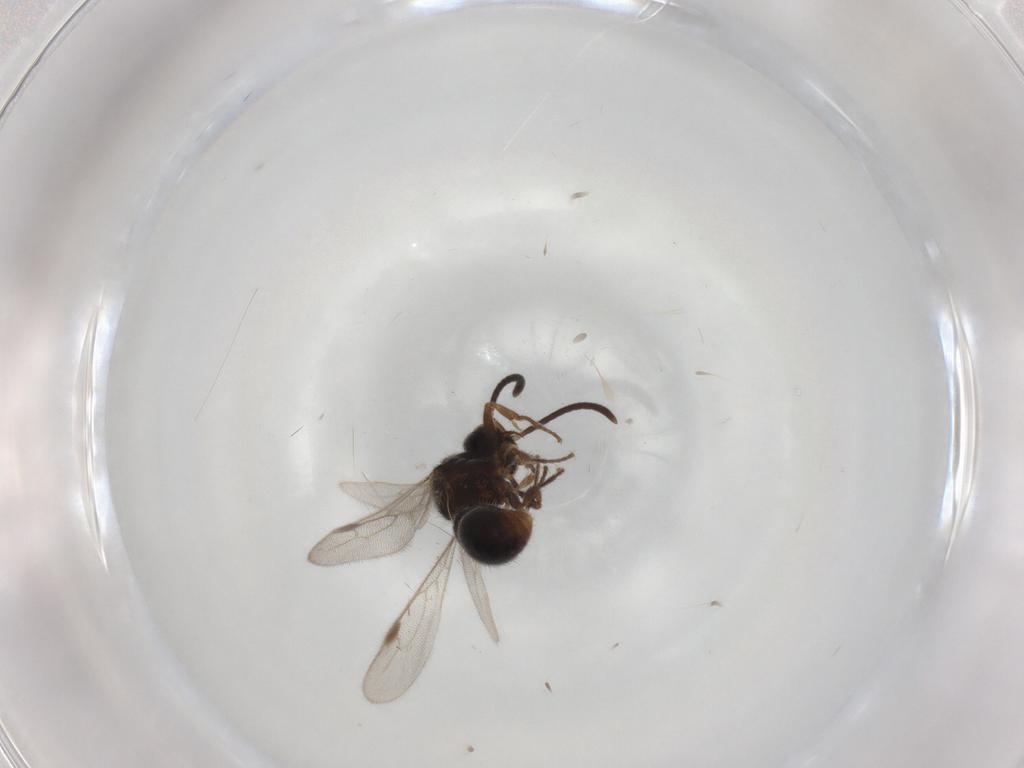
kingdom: Animalia
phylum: Arthropoda
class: Insecta
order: Hymenoptera
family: Formicidae
